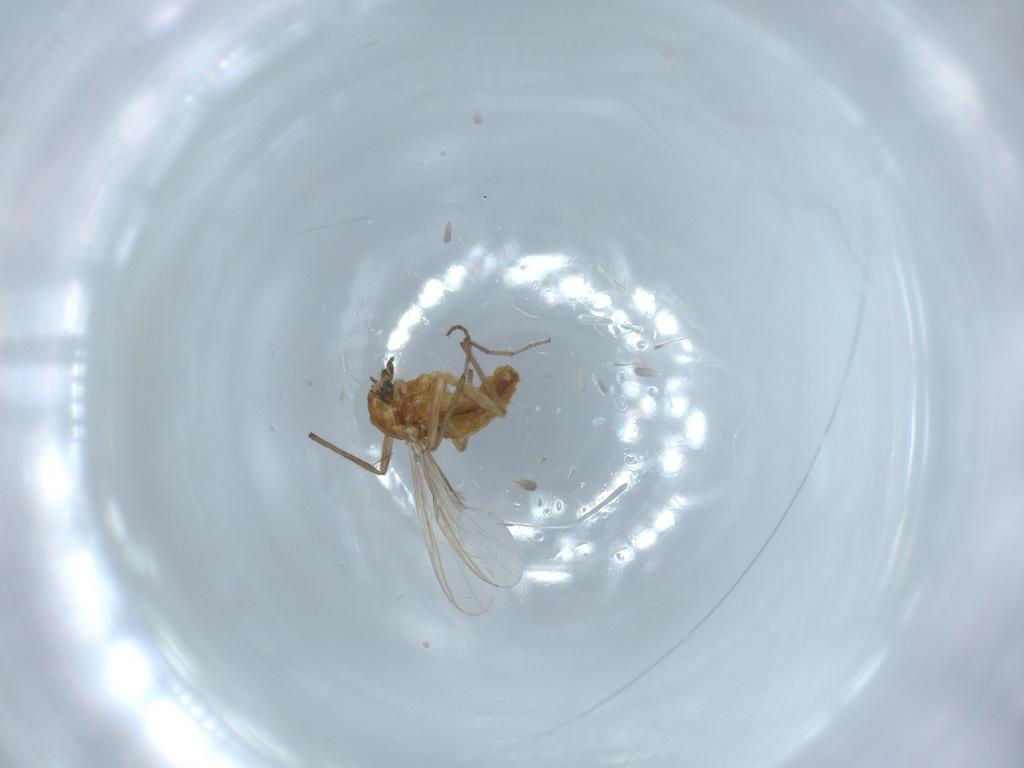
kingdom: Animalia
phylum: Arthropoda
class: Insecta
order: Diptera
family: Chironomidae
